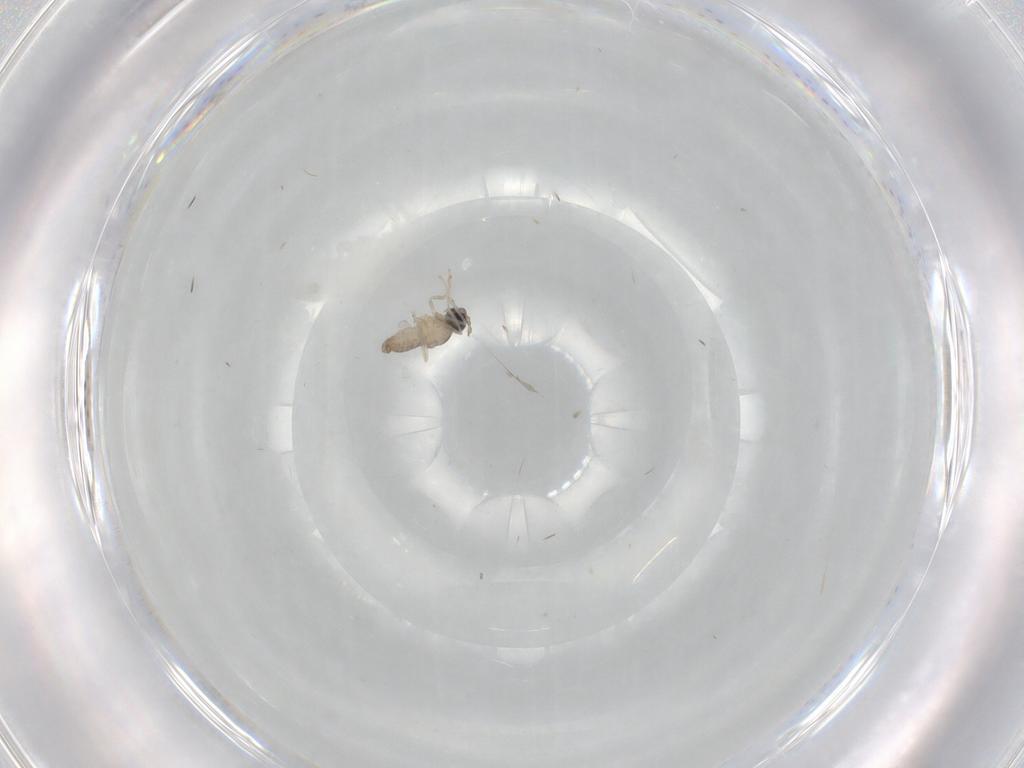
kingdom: Animalia
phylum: Arthropoda
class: Insecta
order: Diptera
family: Cecidomyiidae
